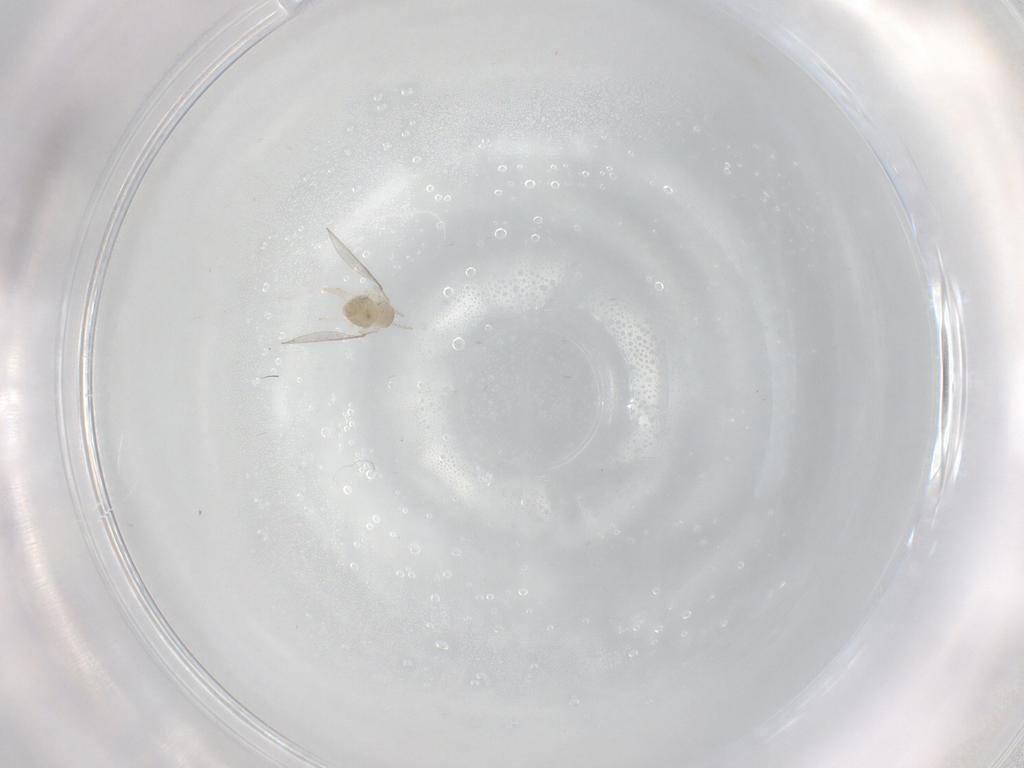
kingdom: Animalia
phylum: Arthropoda
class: Insecta
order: Diptera
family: Cecidomyiidae
